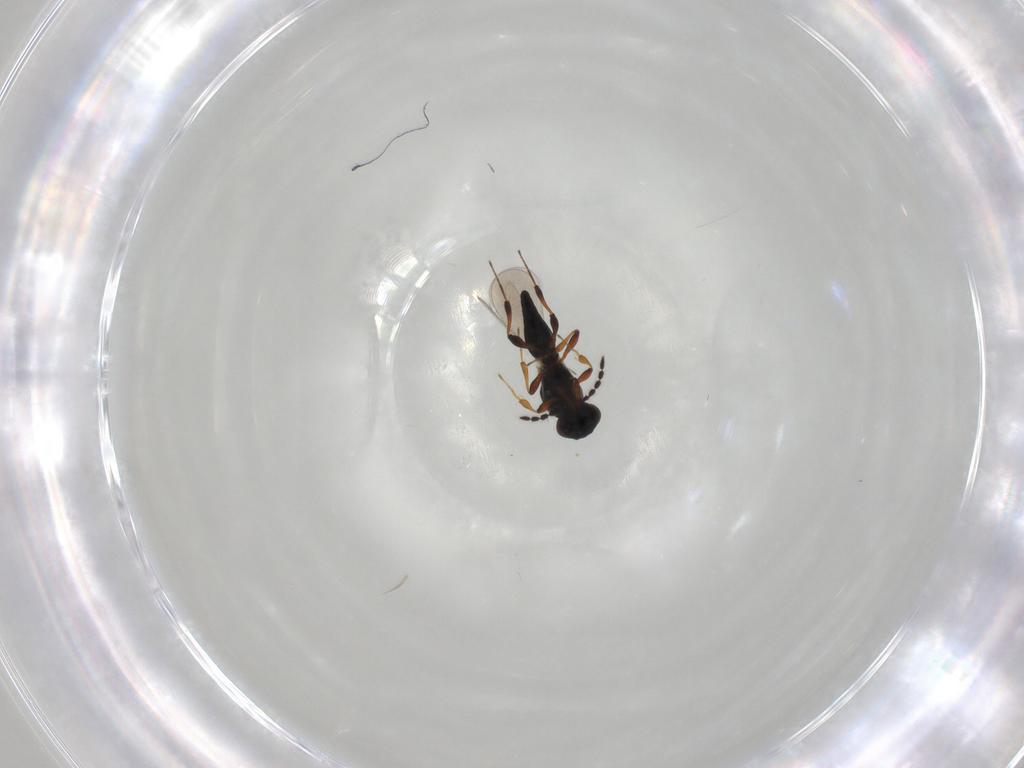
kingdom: Animalia
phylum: Arthropoda
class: Insecta
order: Hymenoptera
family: Platygastridae
